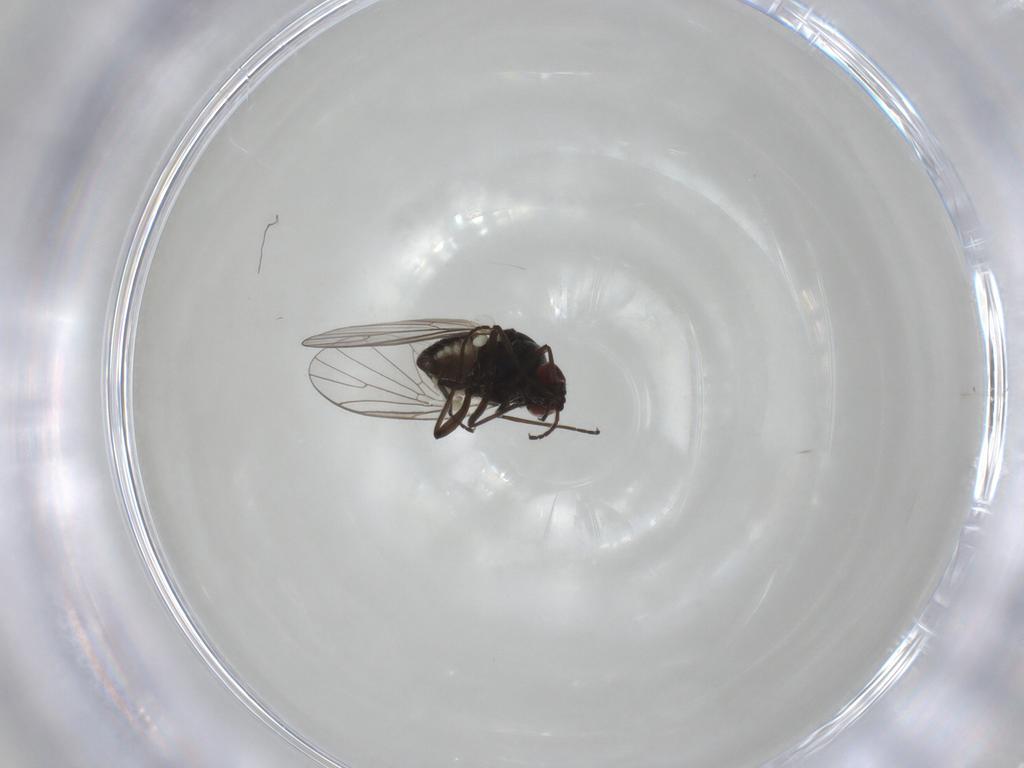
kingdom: Animalia
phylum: Arthropoda
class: Insecta
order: Diptera
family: Bombyliidae
